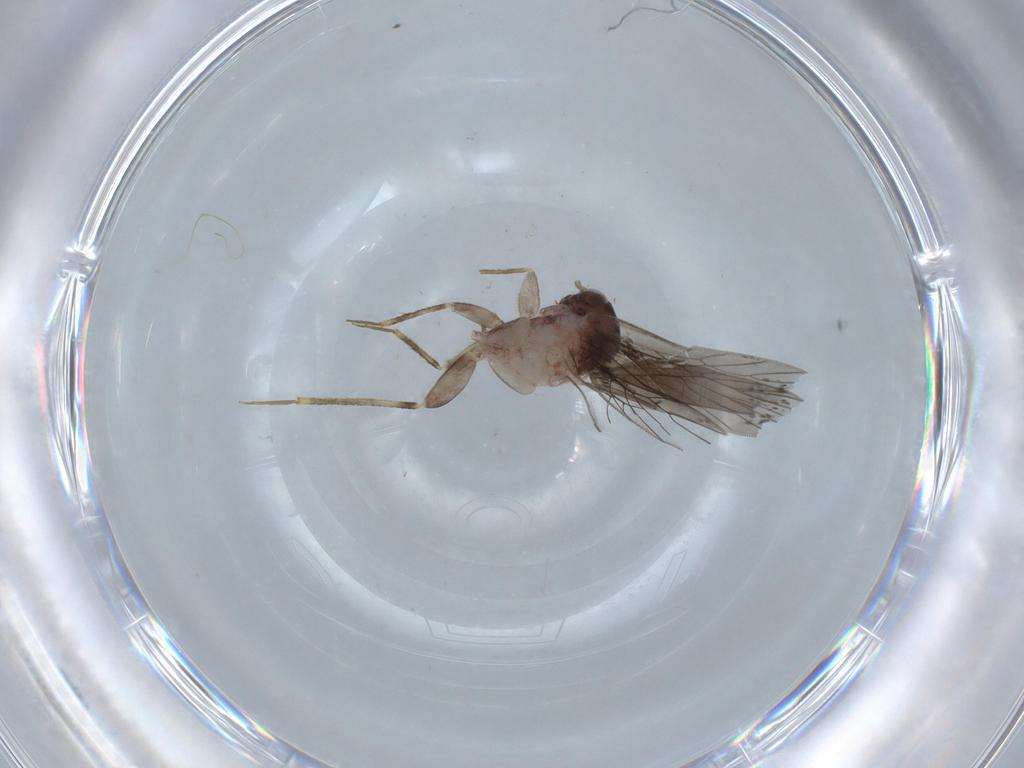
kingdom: Animalia
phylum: Arthropoda
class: Insecta
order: Psocodea
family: Lepidopsocidae
